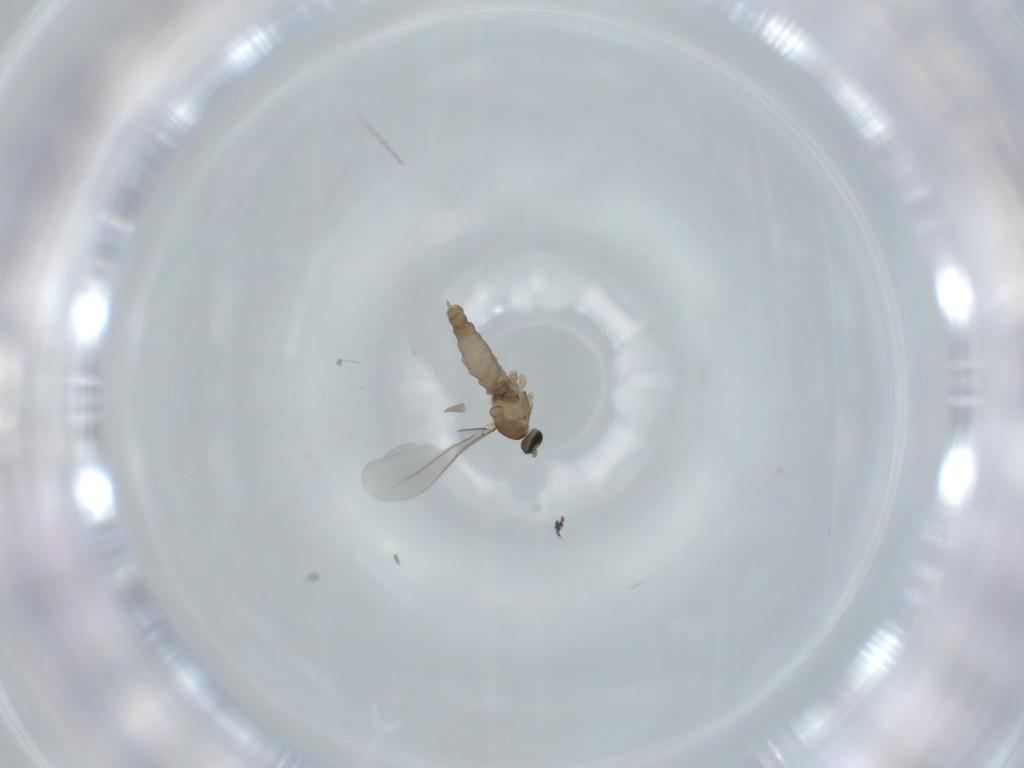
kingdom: Animalia
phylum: Arthropoda
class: Insecta
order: Diptera
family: Cecidomyiidae
